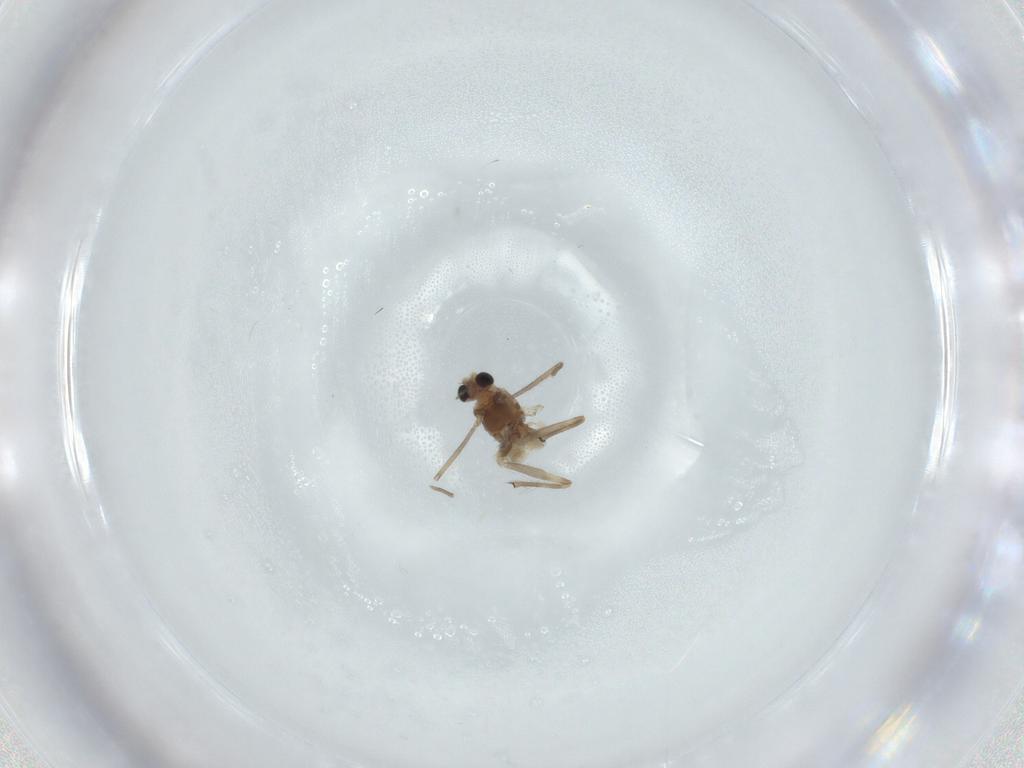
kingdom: Animalia
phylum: Arthropoda
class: Insecta
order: Diptera
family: Chironomidae
